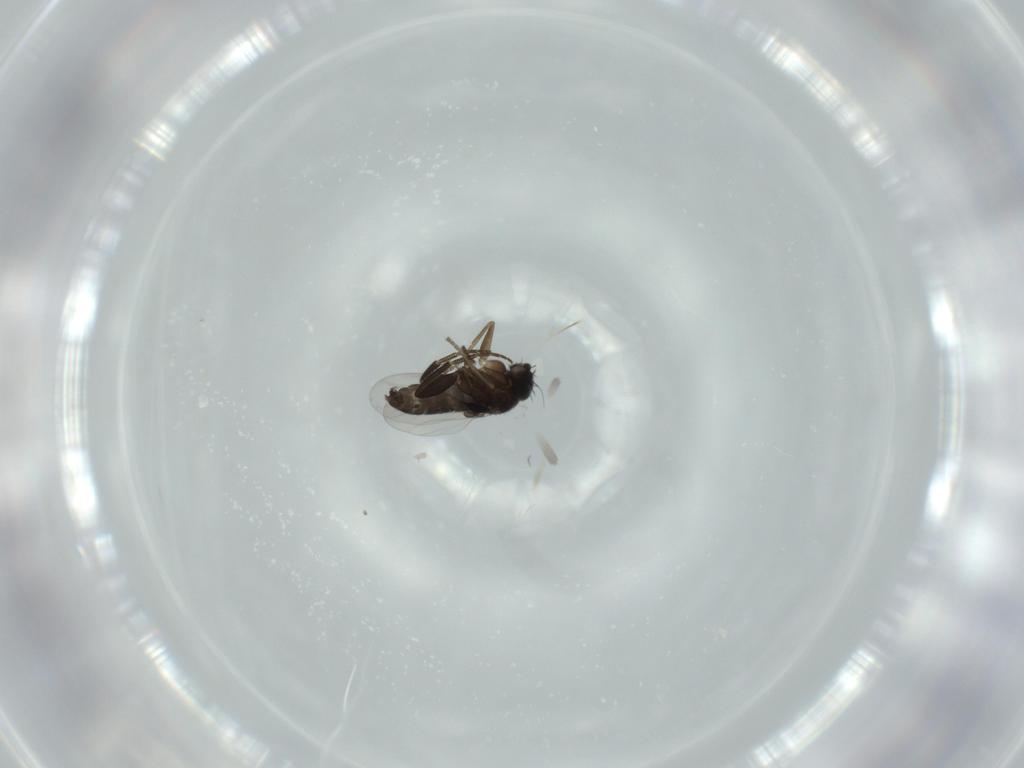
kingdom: Animalia
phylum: Arthropoda
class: Insecta
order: Diptera
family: Phoridae
